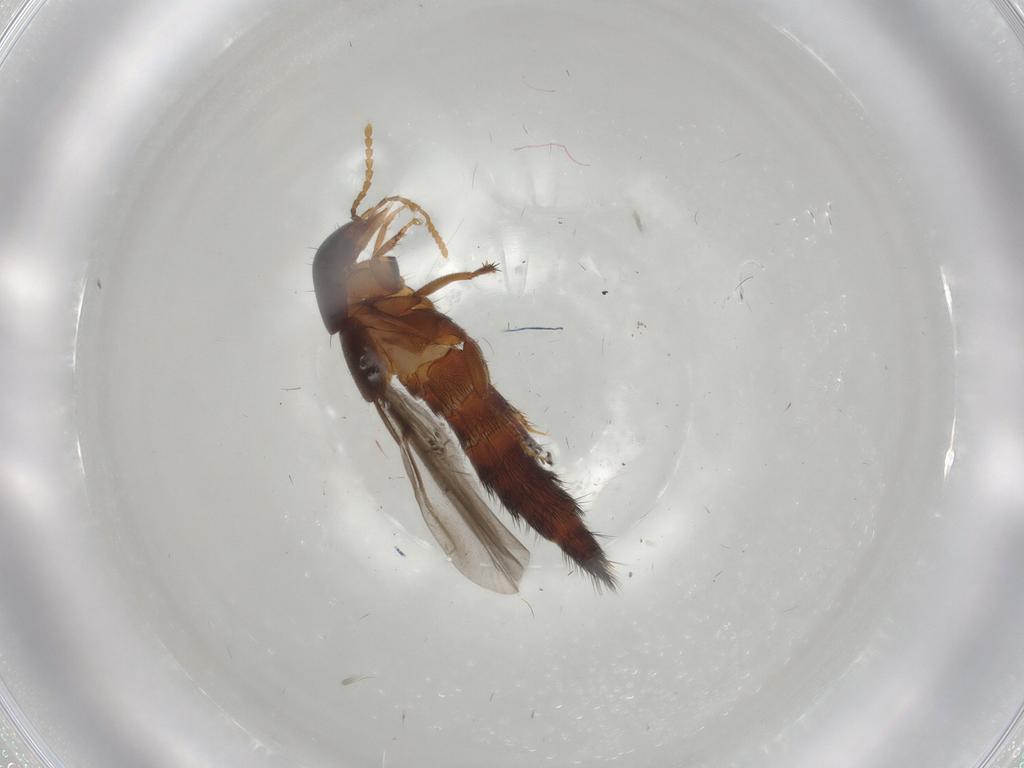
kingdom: Animalia
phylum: Arthropoda
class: Insecta
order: Coleoptera
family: Staphylinidae
